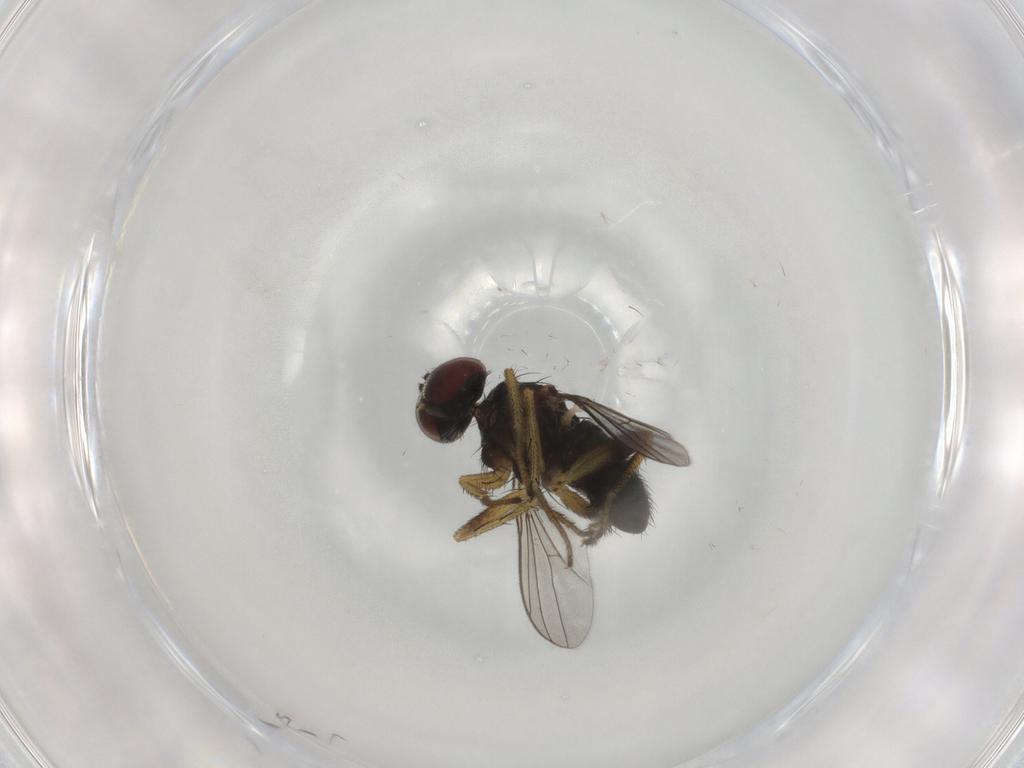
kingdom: Animalia
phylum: Arthropoda
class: Insecta
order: Diptera
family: Dolichopodidae
